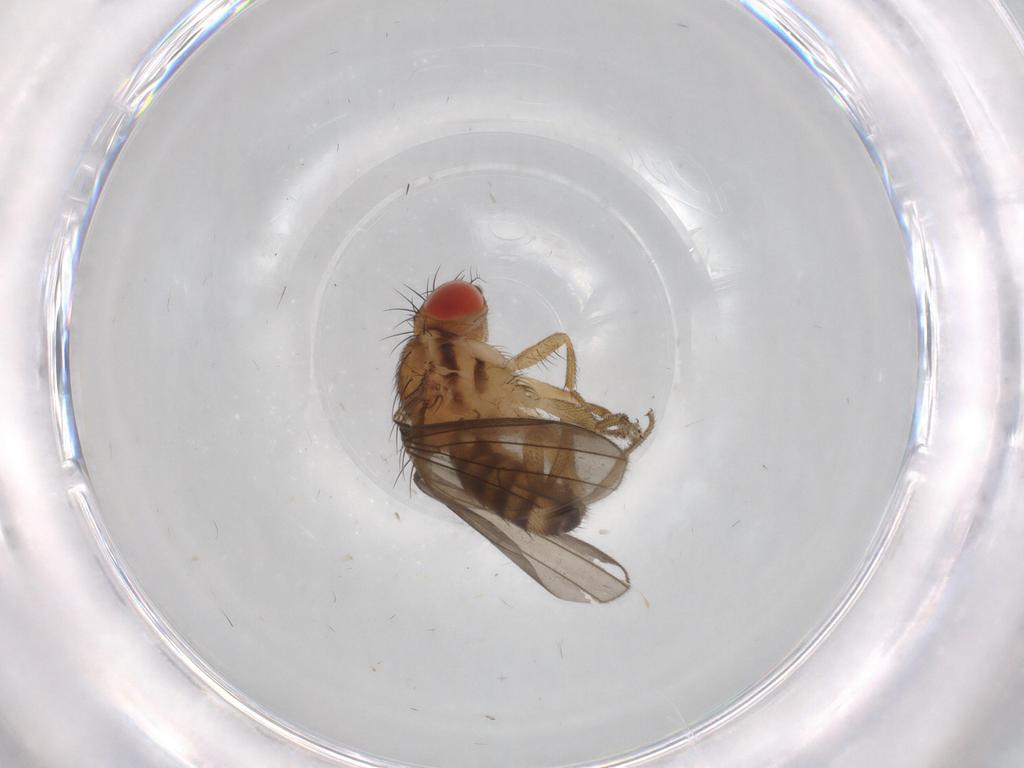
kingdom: Animalia
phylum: Arthropoda
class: Insecta
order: Diptera
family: Drosophilidae
